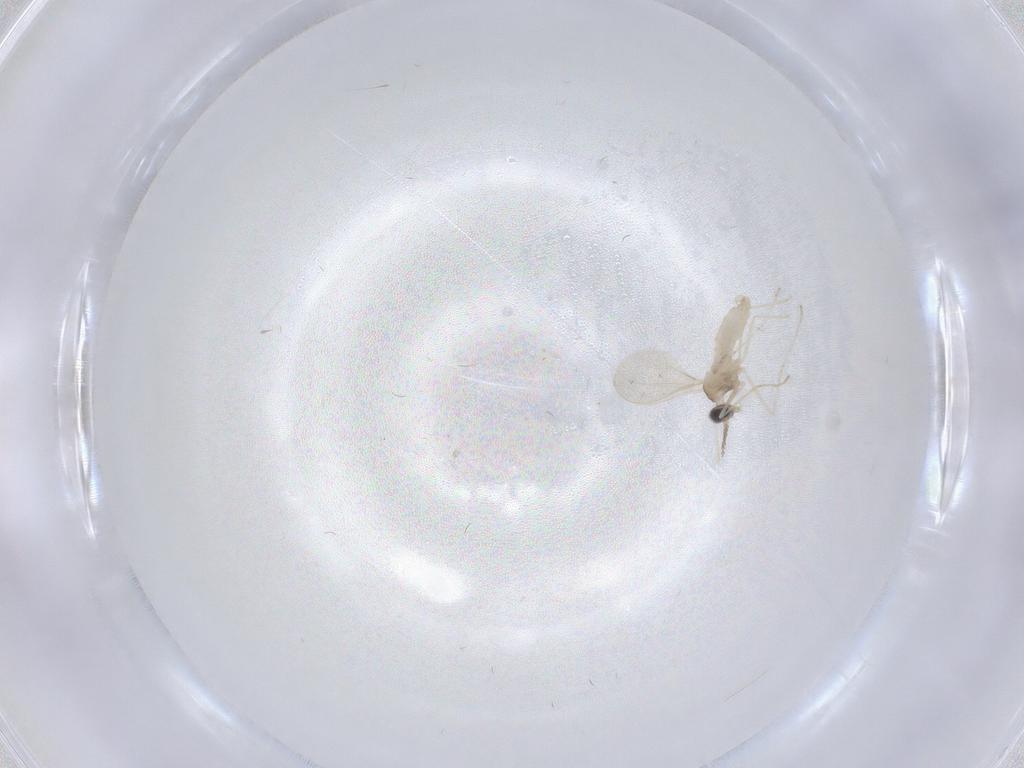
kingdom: Animalia
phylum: Arthropoda
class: Insecta
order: Diptera
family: Cecidomyiidae
